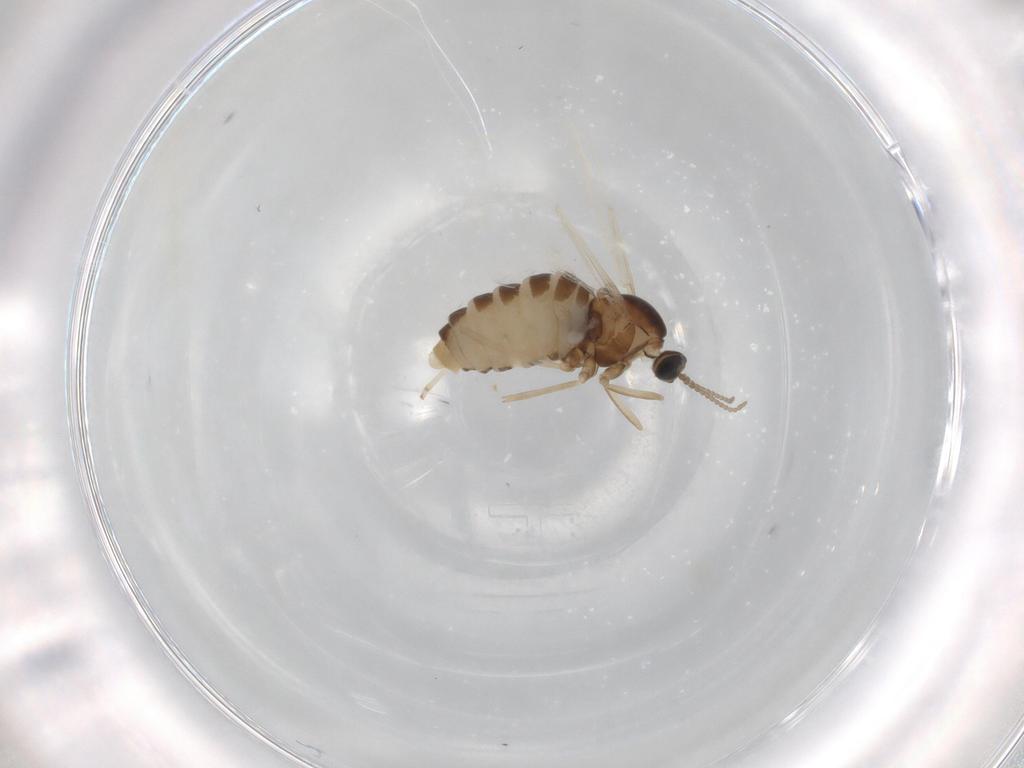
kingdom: Animalia
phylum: Arthropoda
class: Insecta
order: Diptera
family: Cecidomyiidae
